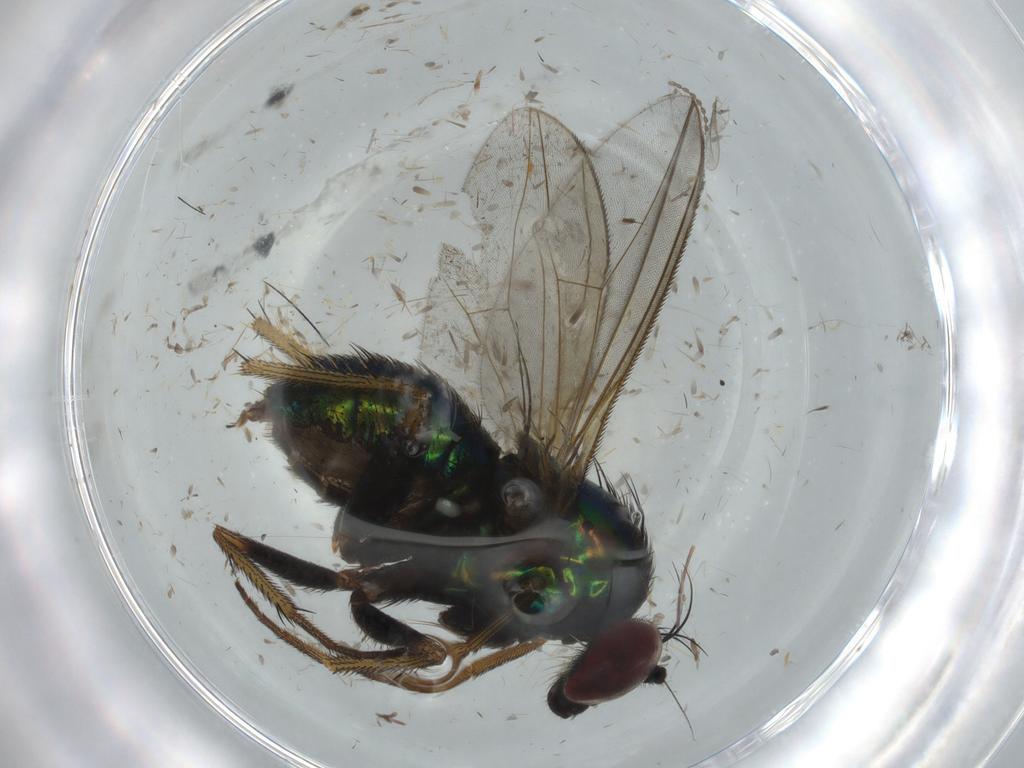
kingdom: Animalia
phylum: Arthropoda
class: Insecta
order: Diptera
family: Dolichopodidae
